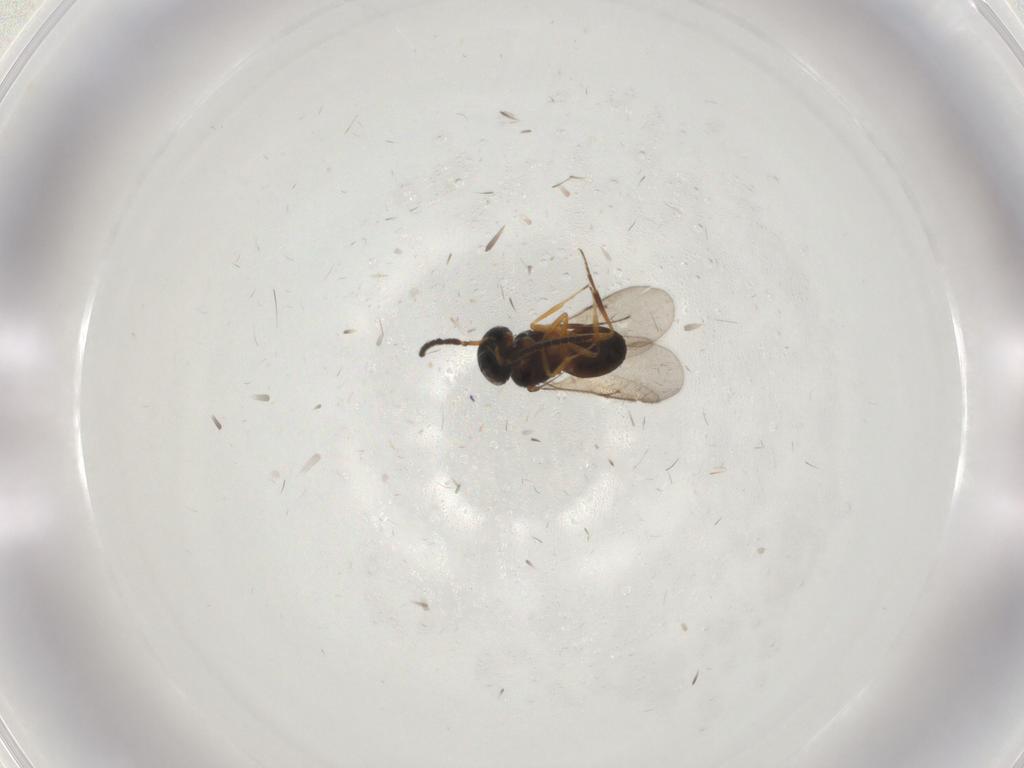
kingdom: Animalia
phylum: Arthropoda
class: Insecta
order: Hymenoptera
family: Scelionidae
